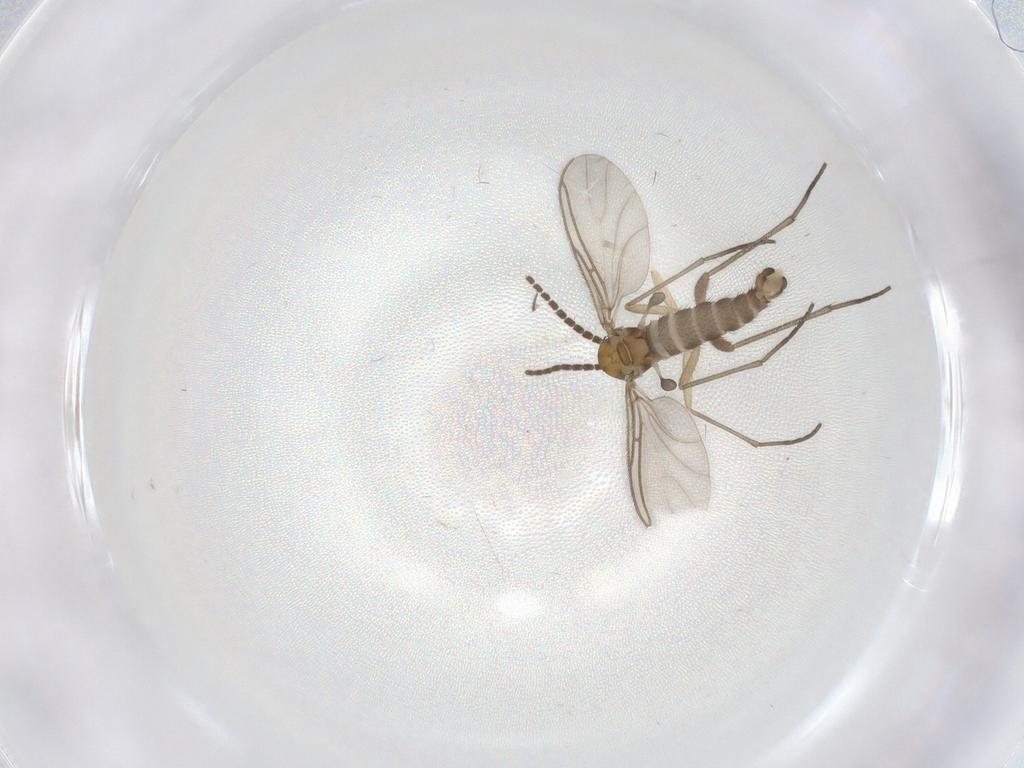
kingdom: Animalia
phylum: Arthropoda
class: Insecta
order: Diptera
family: Sciaridae
